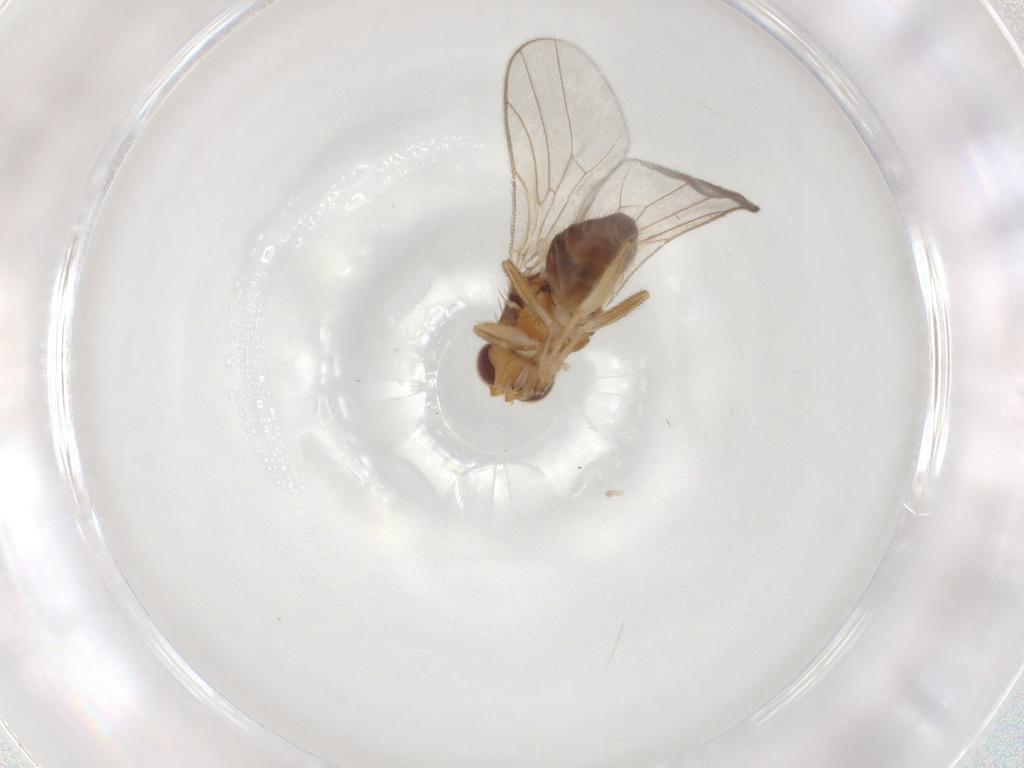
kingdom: Animalia
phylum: Arthropoda
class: Insecta
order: Diptera
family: Chloropidae
